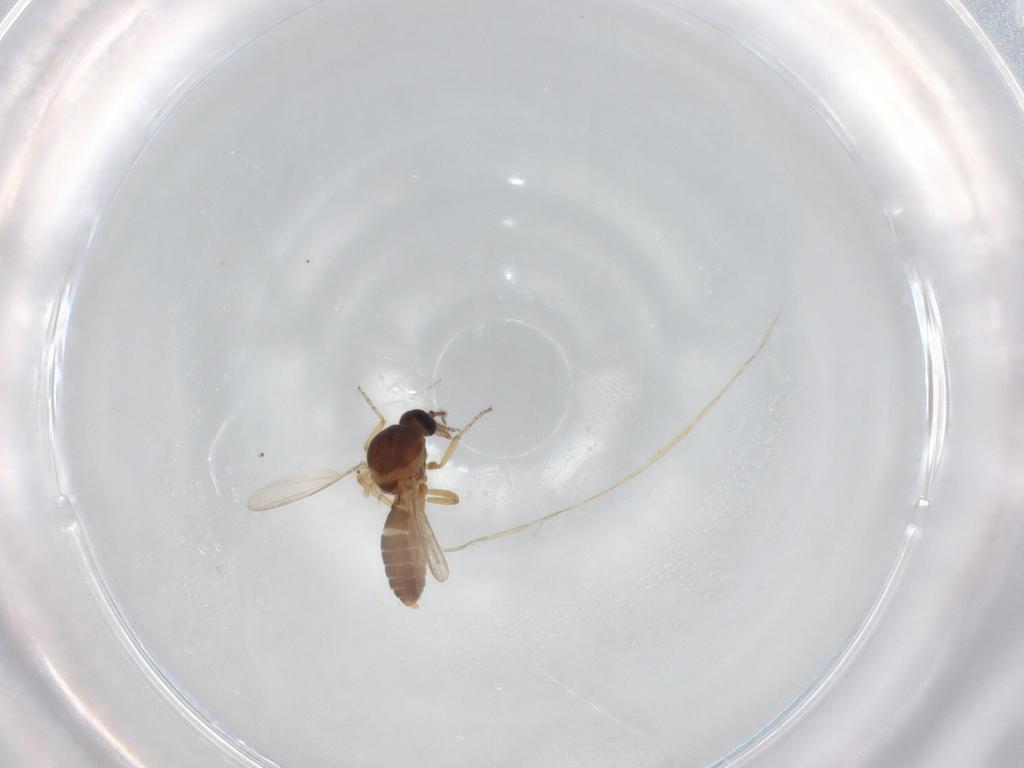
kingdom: Animalia
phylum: Arthropoda
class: Insecta
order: Diptera
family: Ceratopogonidae
